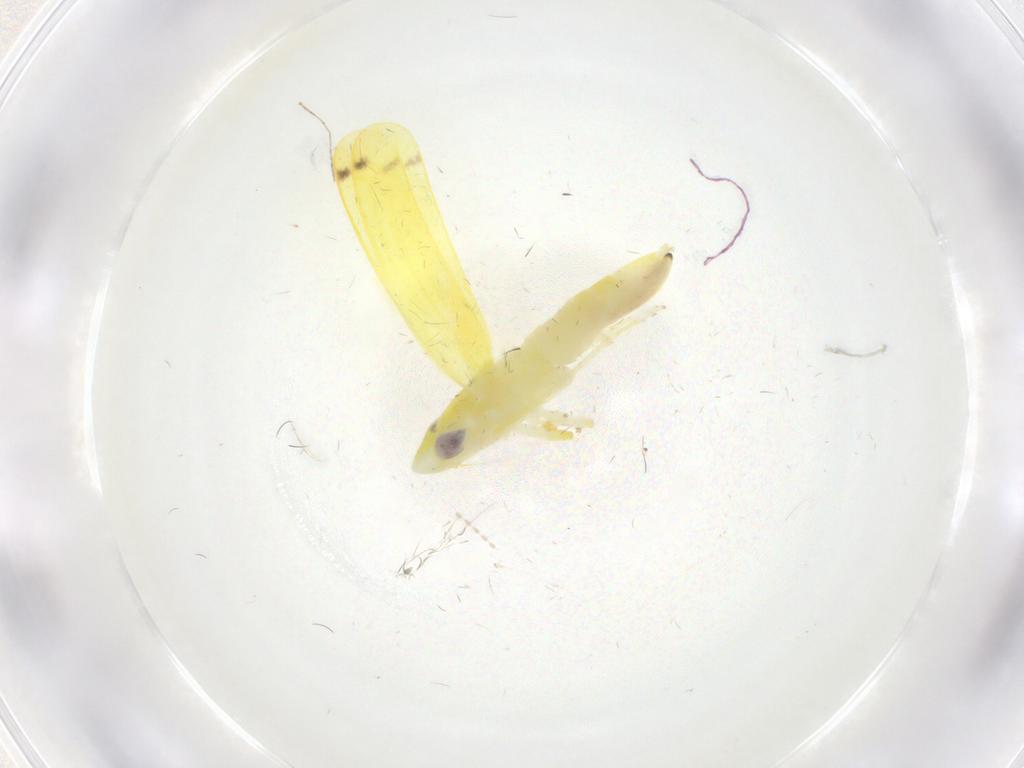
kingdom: Animalia
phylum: Arthropoda
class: Insecta
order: Hemiptera
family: Cicadellidae
